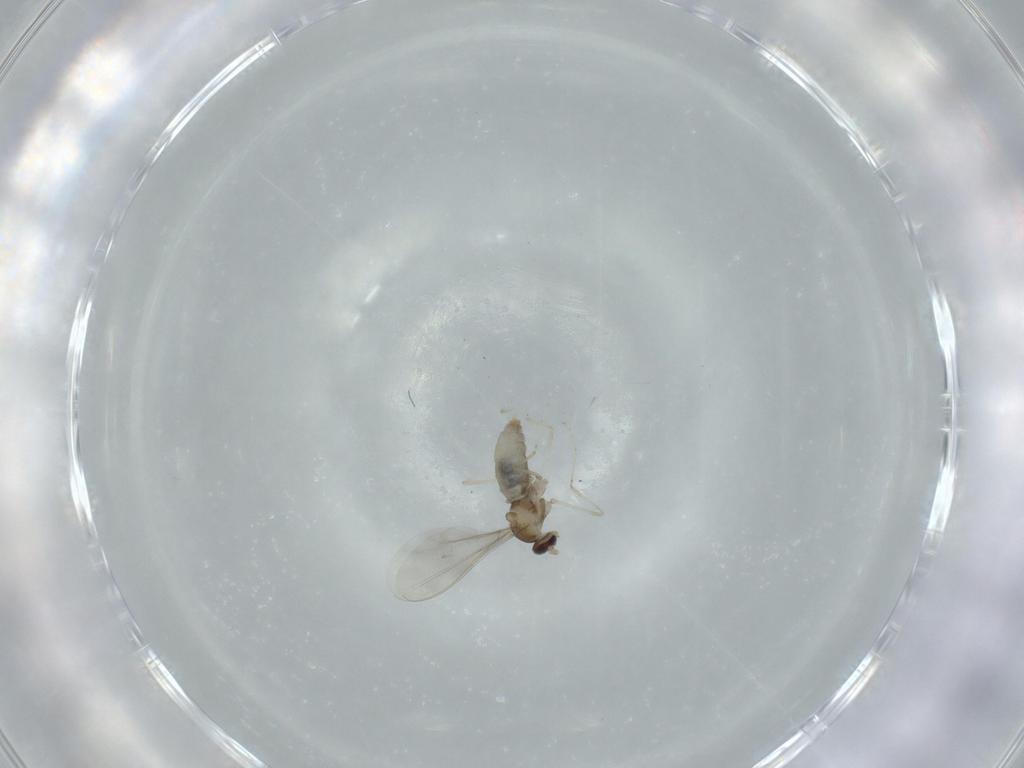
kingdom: Animalia
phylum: Arthropoda
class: Insecta
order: Diptera
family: Cecidomyiidae
